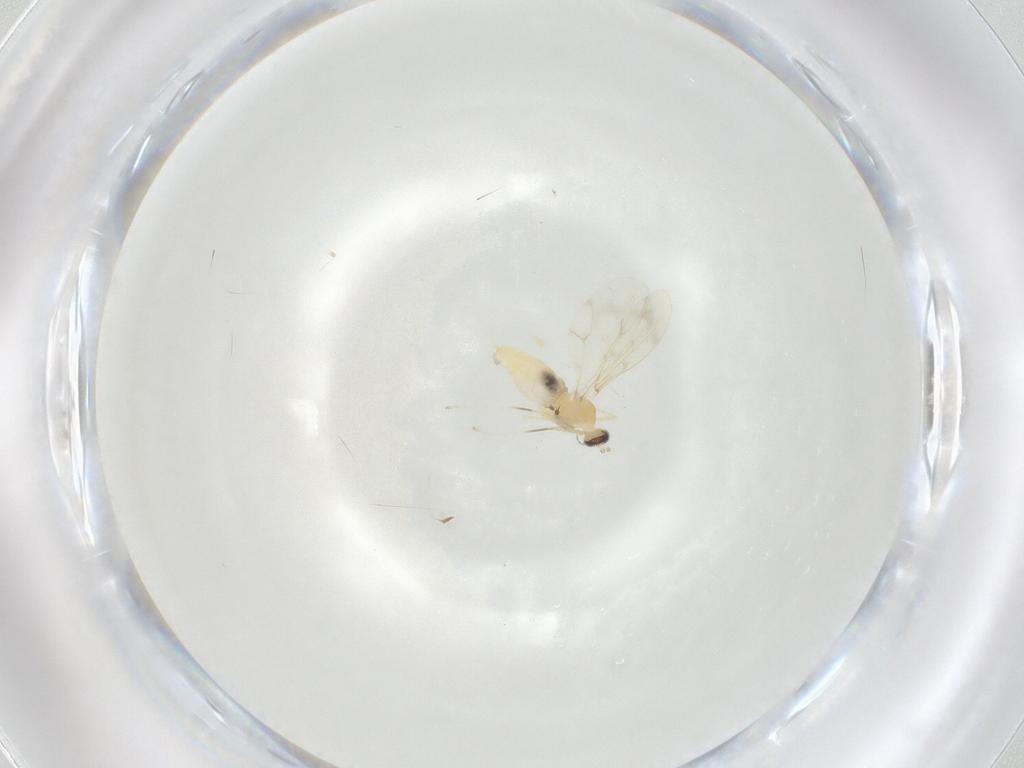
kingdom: Animalia
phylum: Arthropoda
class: Insecta
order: Diptera
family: Cecidomyiidae
